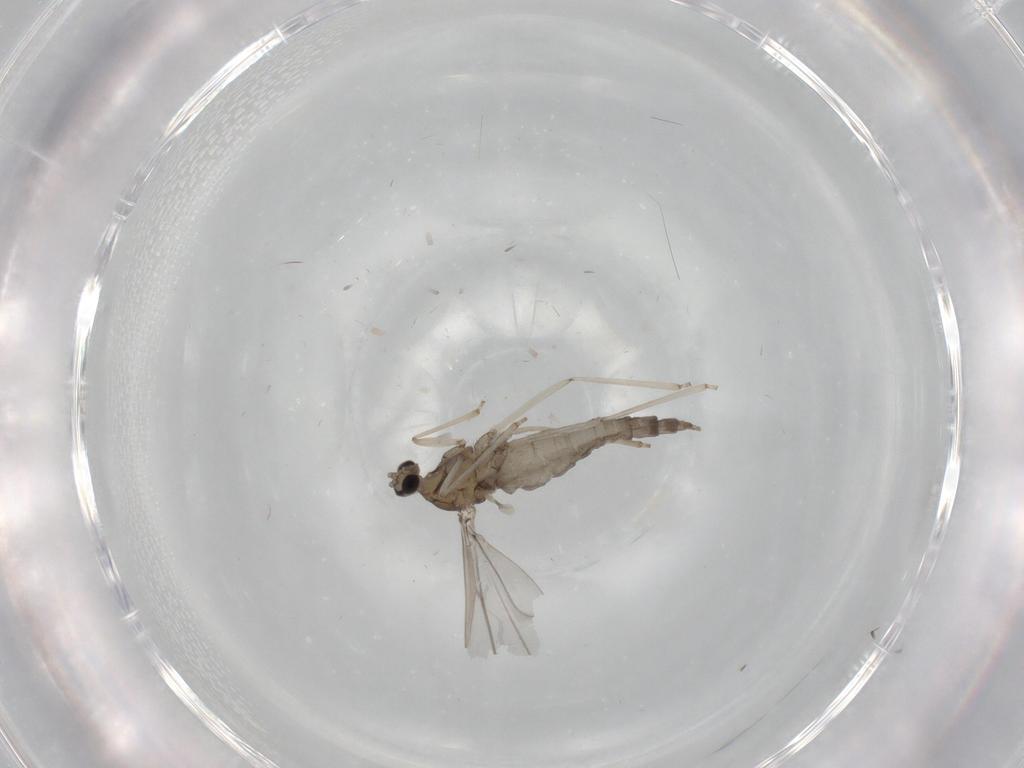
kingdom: Animalia
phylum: Arthropoda
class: Insecta
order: Diptera
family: Cecidomyiidae
